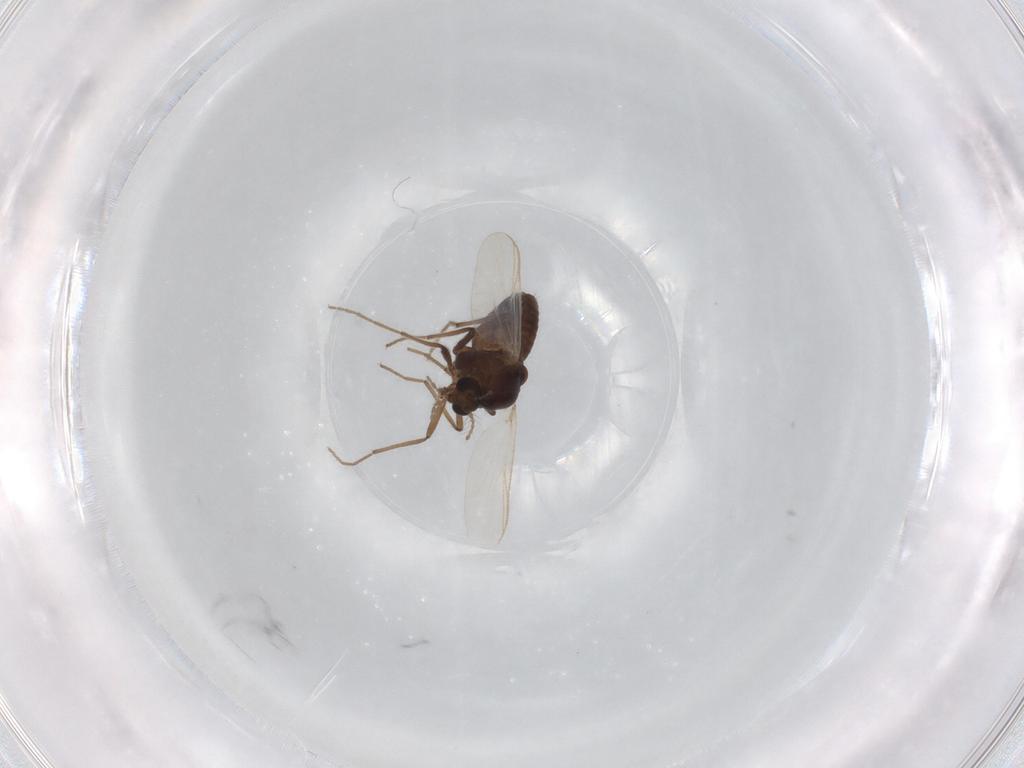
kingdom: Animalia
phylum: Arthropoda
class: Insecta
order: Diptera
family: Chironomidae
